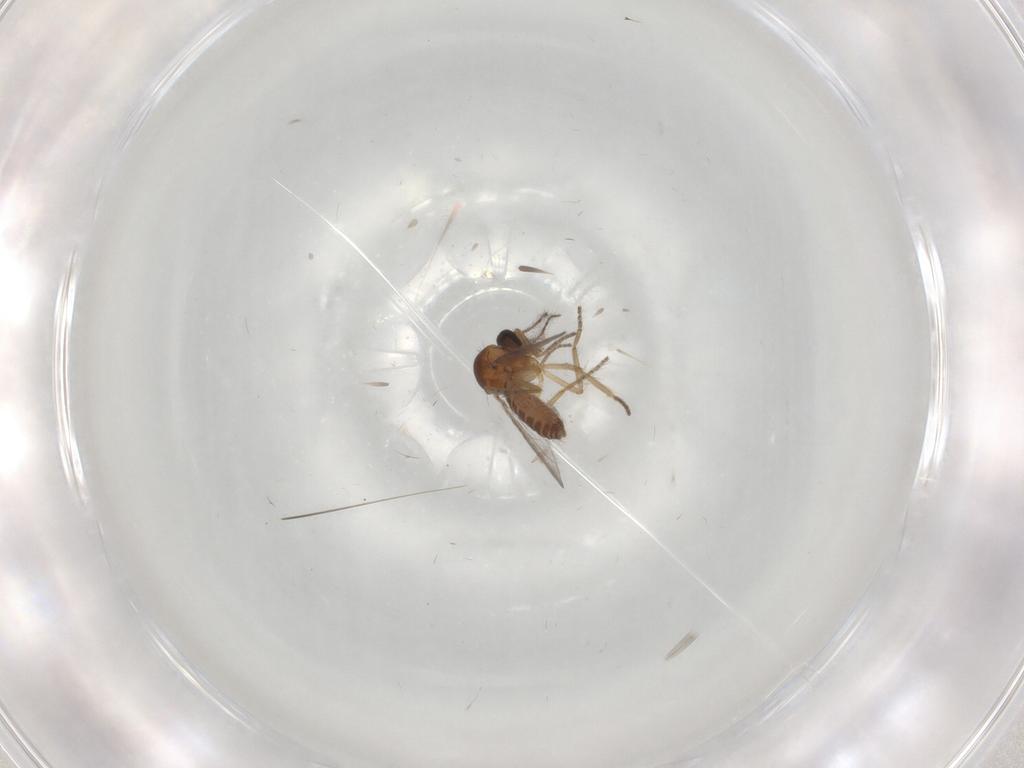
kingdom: Animalia
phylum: Arthropoda
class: Insecta
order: Diptera
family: Ceratopogonidae
